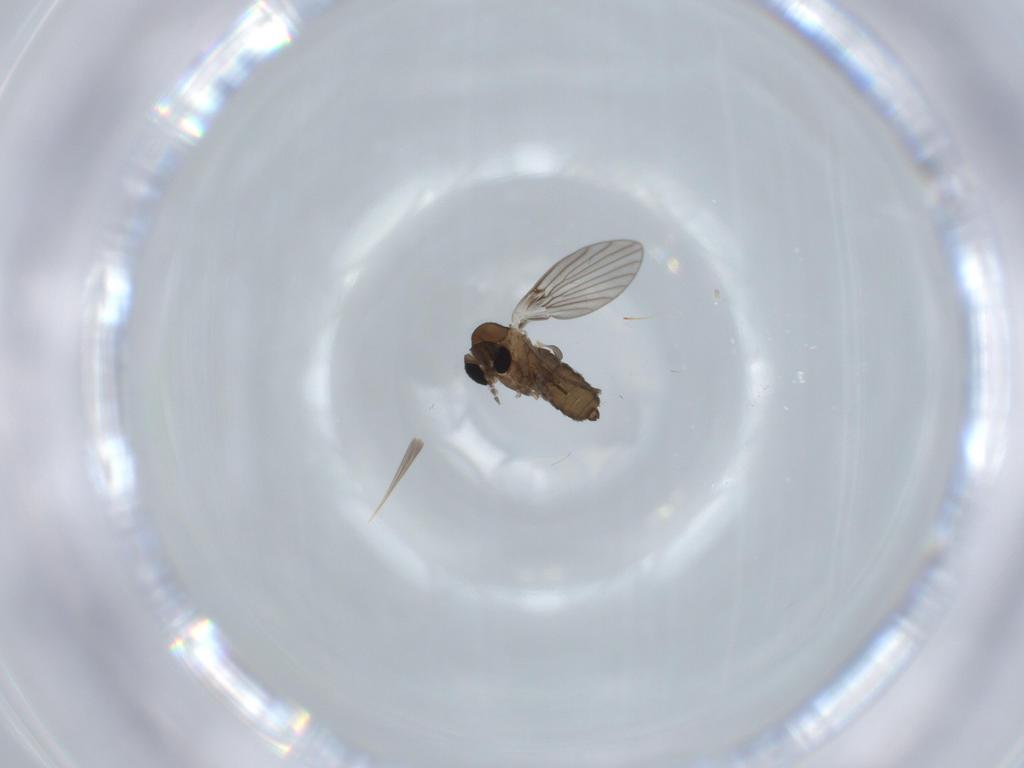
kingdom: Animalia
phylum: Arthropoda
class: Insecta
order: Diptera
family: Psychodidae
